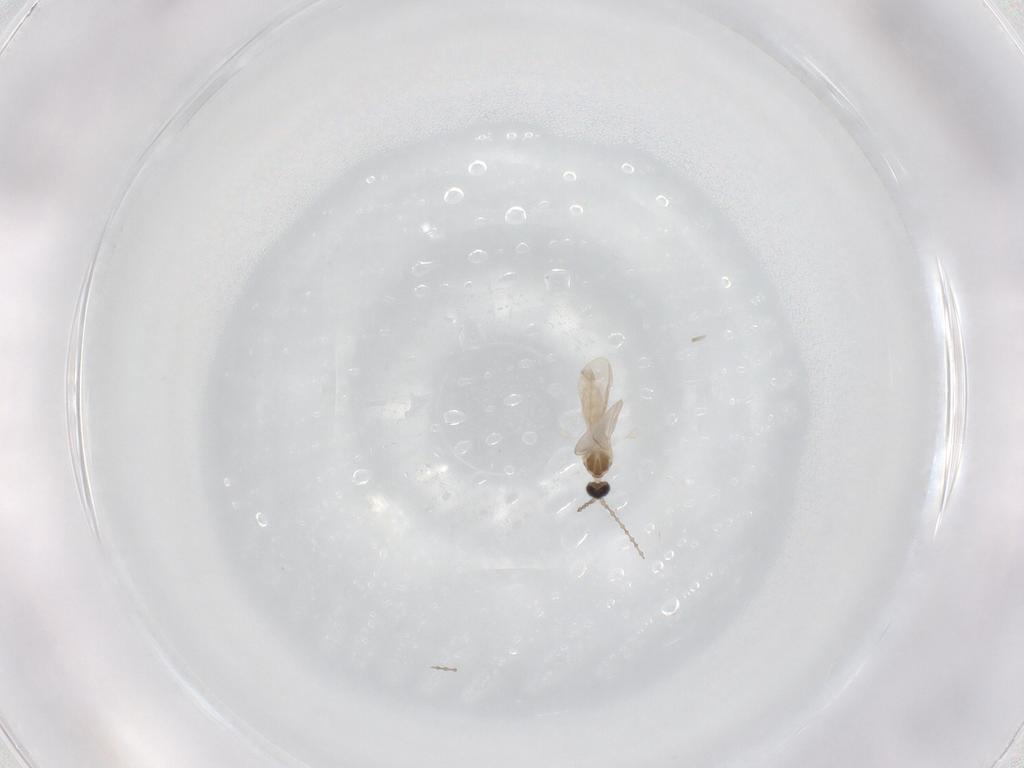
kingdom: Animalia
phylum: Arthropoda
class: Insecta
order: Diptera
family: Cecidomyiidae
